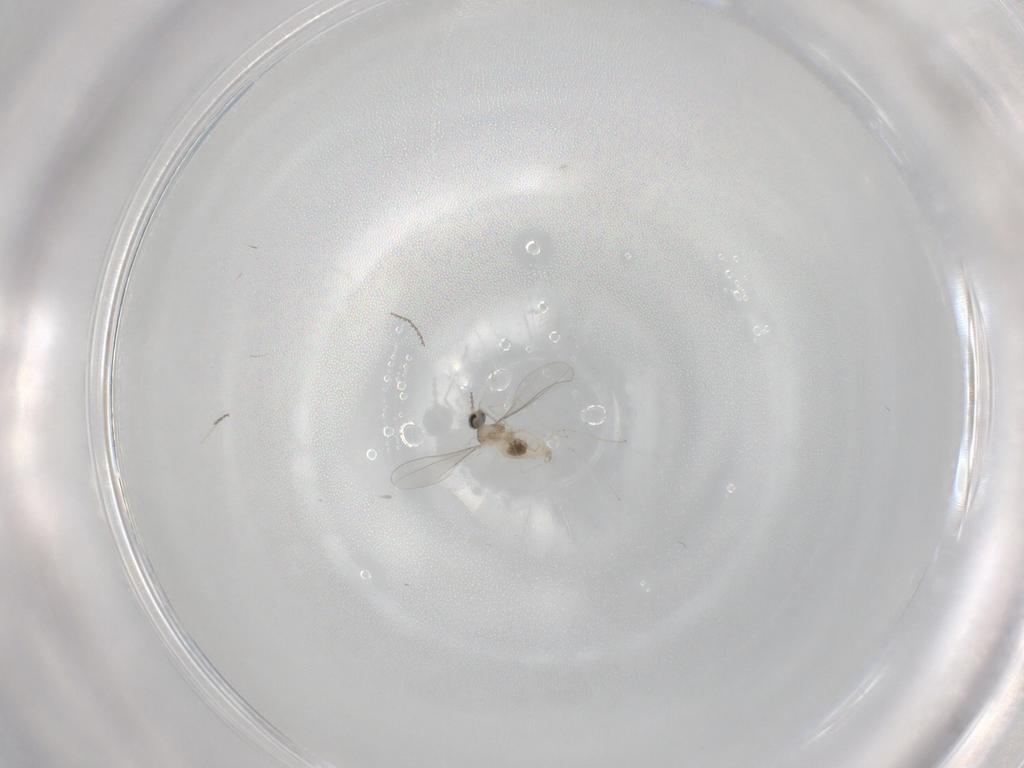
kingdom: Animalia
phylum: Arthropoda
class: Insecta
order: Diptera
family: Cecidomyiidae
